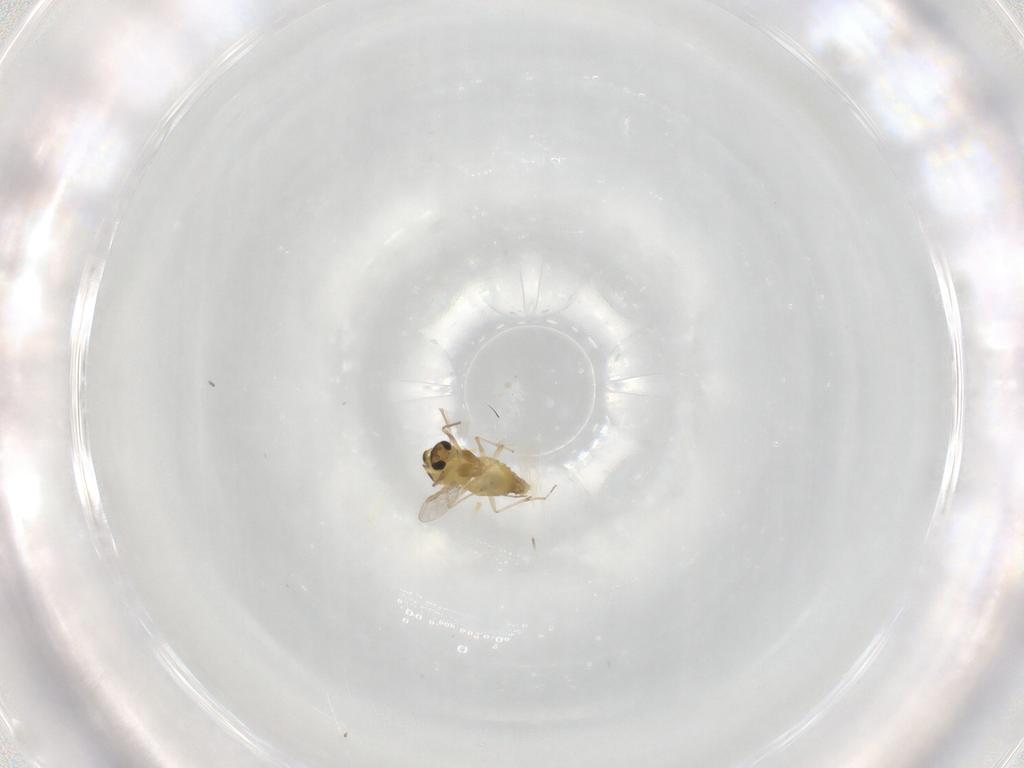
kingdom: Animalia
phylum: Arthropoda
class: Insecta
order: Diptera
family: Chironomidae
